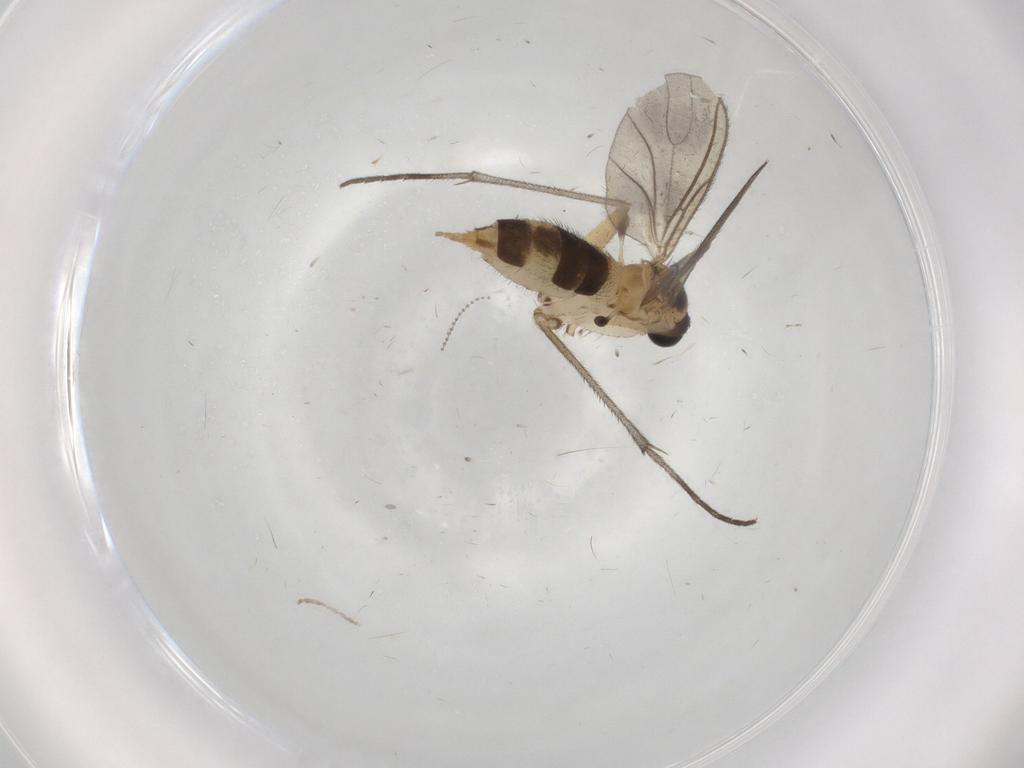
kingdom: Animalia
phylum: Arthropoda
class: Insecta
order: Diptera
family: Sciaridae
